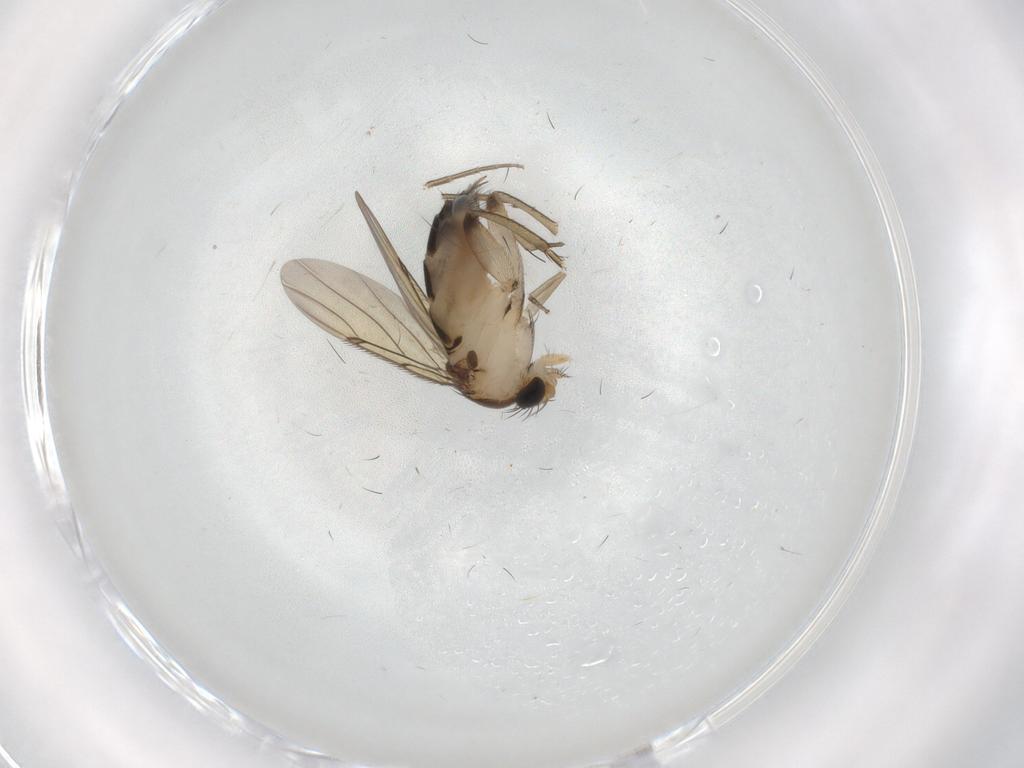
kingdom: Animalia
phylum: Arthropoda
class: Insecta
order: Diptera
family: Phoridae
